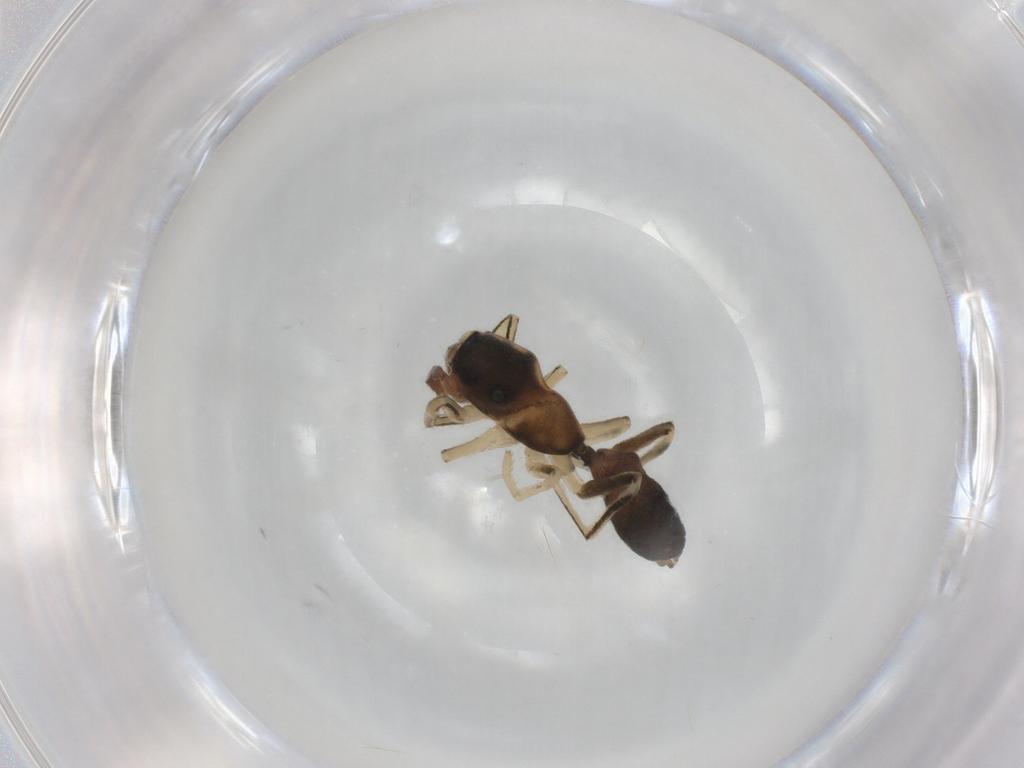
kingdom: Animalia
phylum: Arthropoda
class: Arachnida
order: Araneae
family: Salticidae
